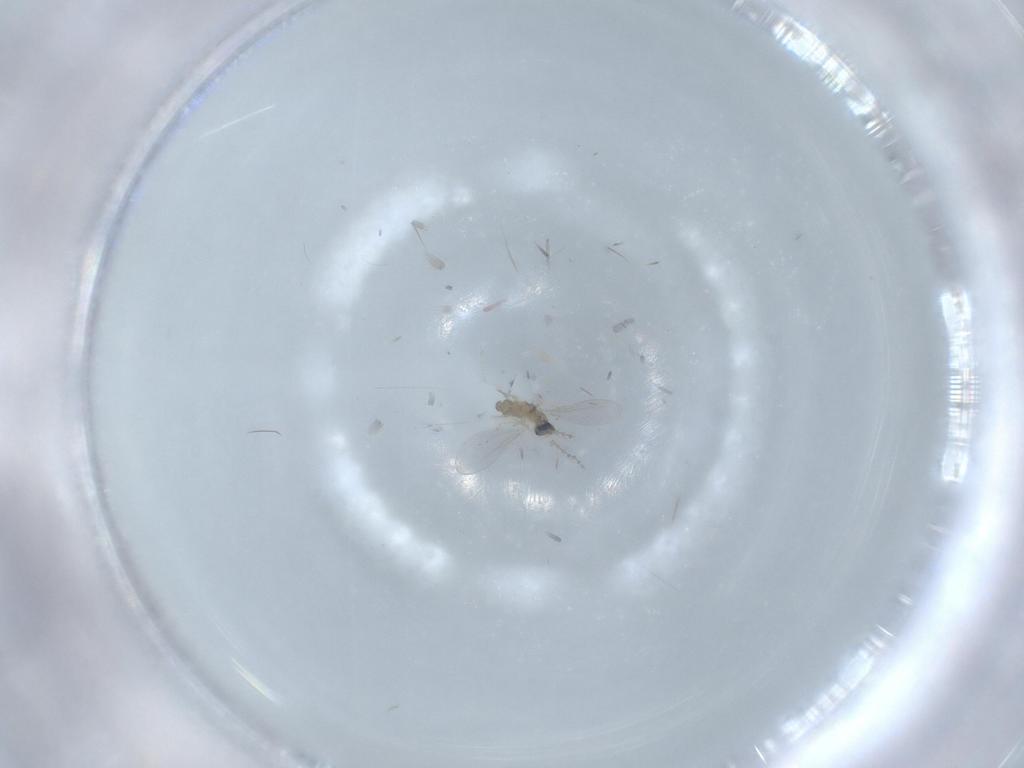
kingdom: Animalia
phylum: Arthropoda
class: Insecta
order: Diptera
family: Cecidomyiidae
